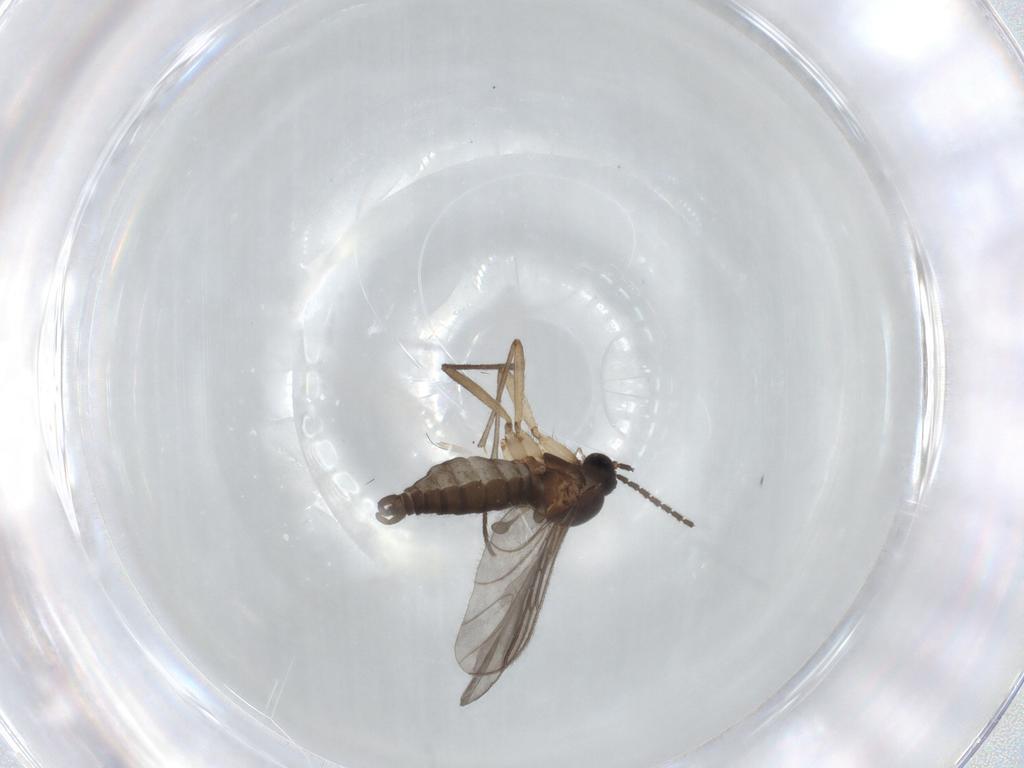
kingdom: Animalia
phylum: Arthropoda
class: Insecta
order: Diptera
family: Sciaridae
